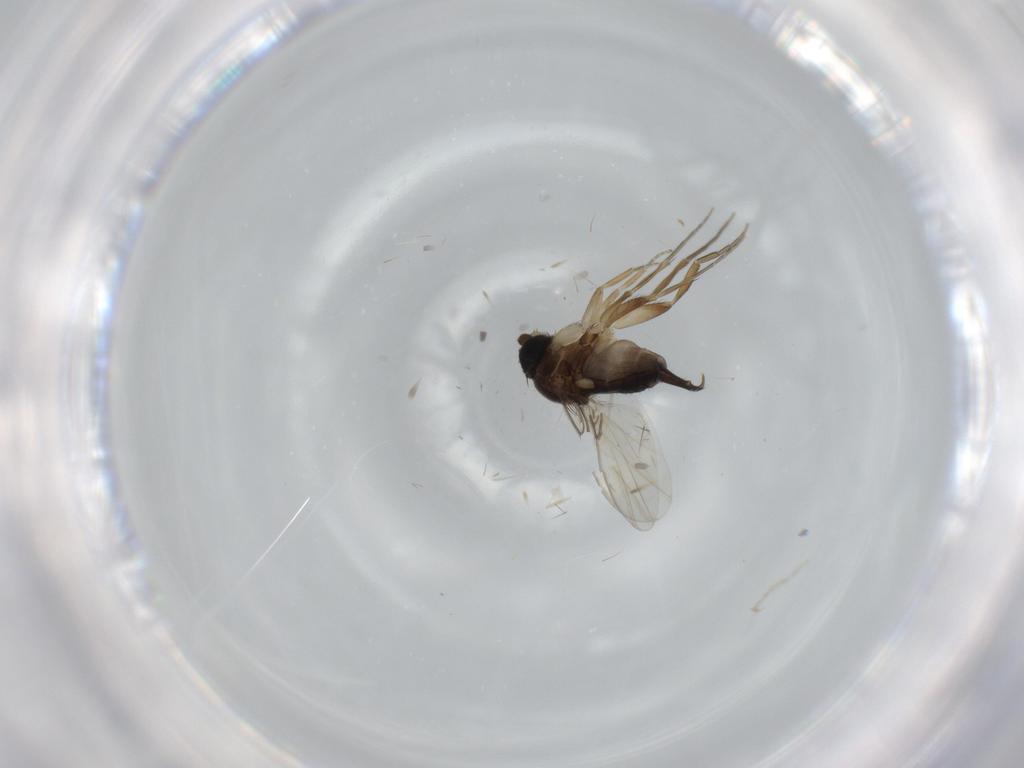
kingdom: Animalia
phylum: Arthropoda
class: Insecta
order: Diptera
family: Phoridae
